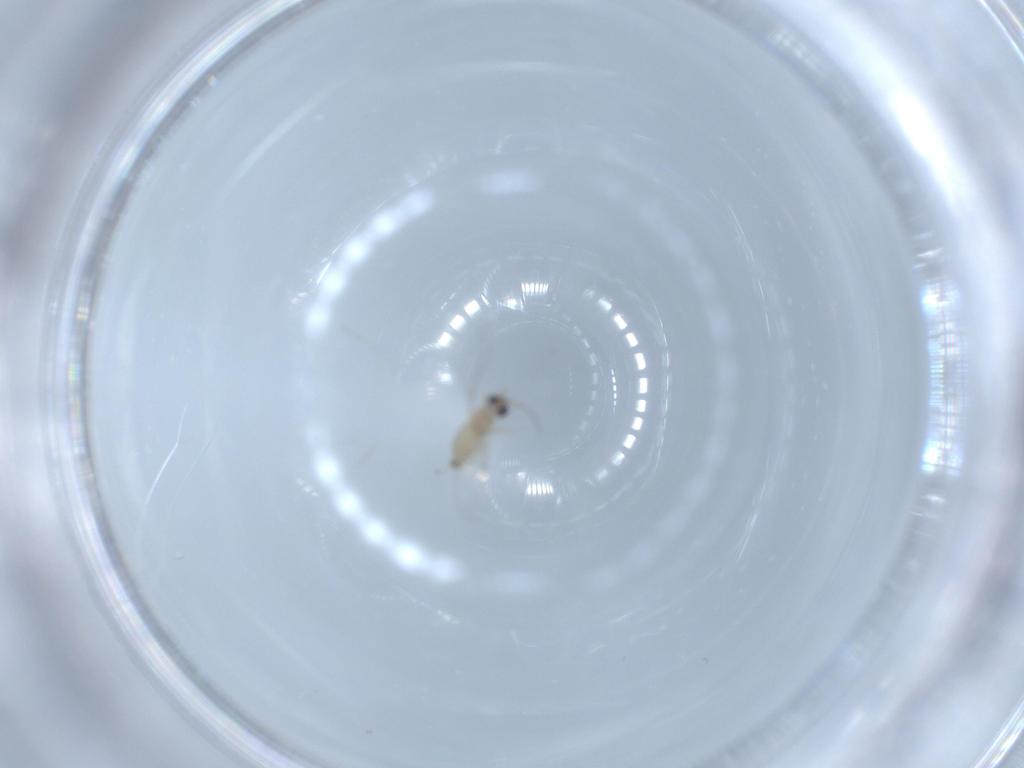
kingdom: Animalia
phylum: Arthropoda
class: Insecta
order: Diptera
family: Cecidomyiidae
